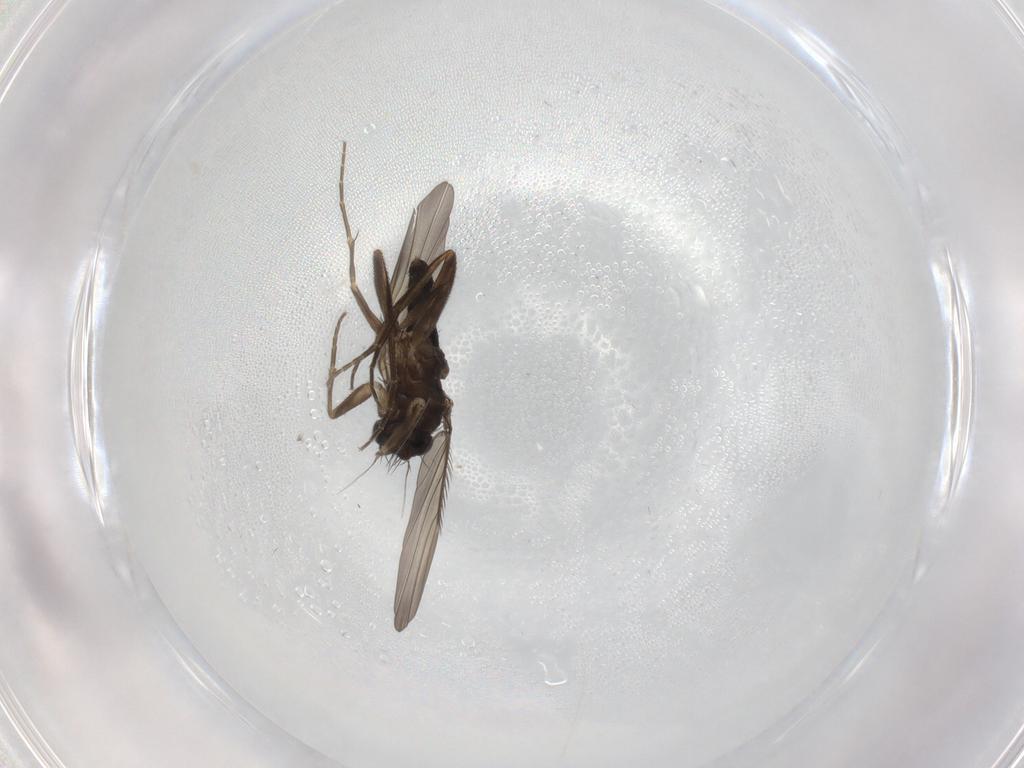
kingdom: Animalia
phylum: Arthropoda
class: Insecta
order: Diptera
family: Phoridae
